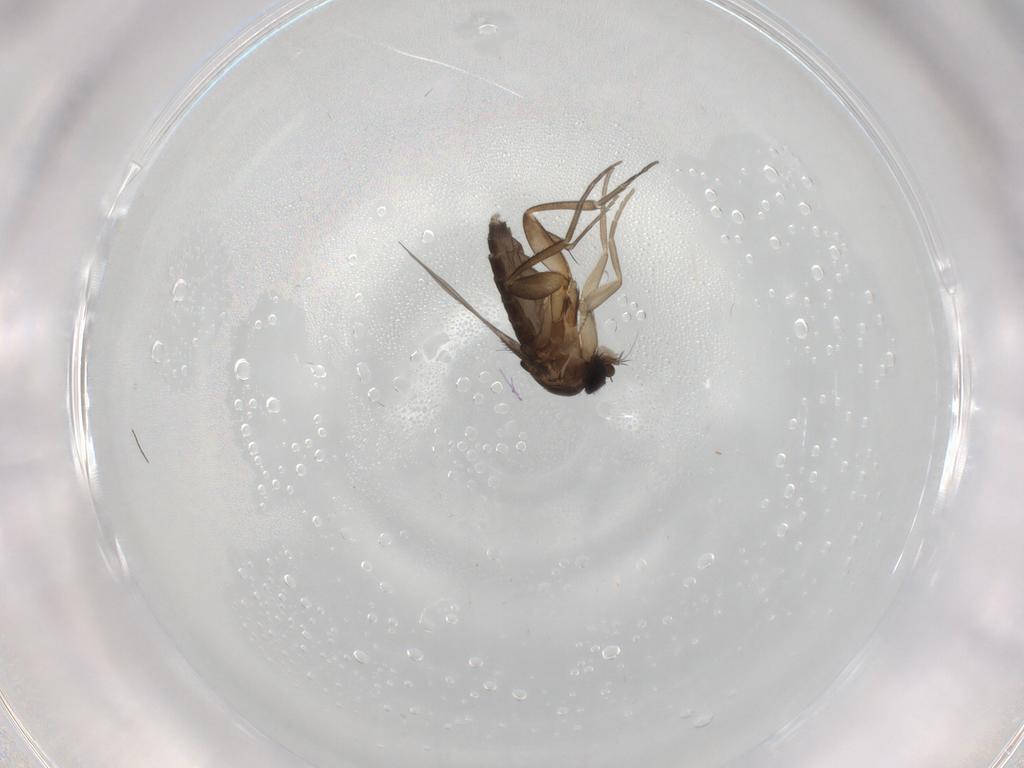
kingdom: Animalia
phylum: Arthropoda
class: Insecta
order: Diptera
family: Phoridae
